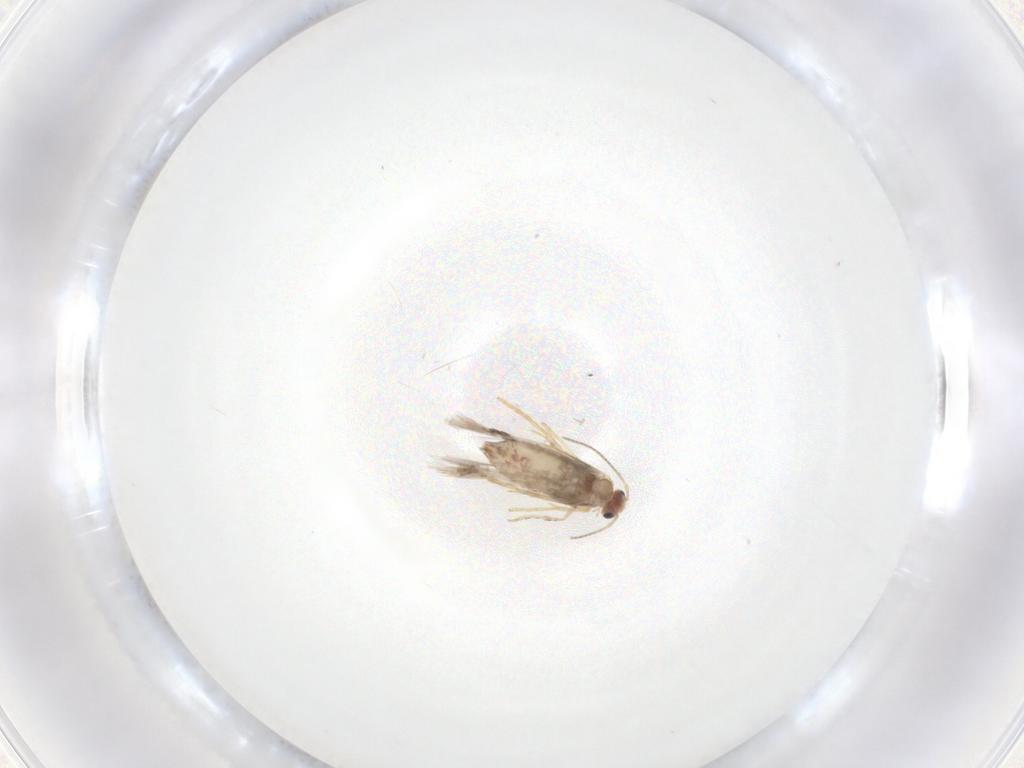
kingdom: Animalia
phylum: Arthropoda
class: Insecta
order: Lepidoptera
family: Nepticulidae
